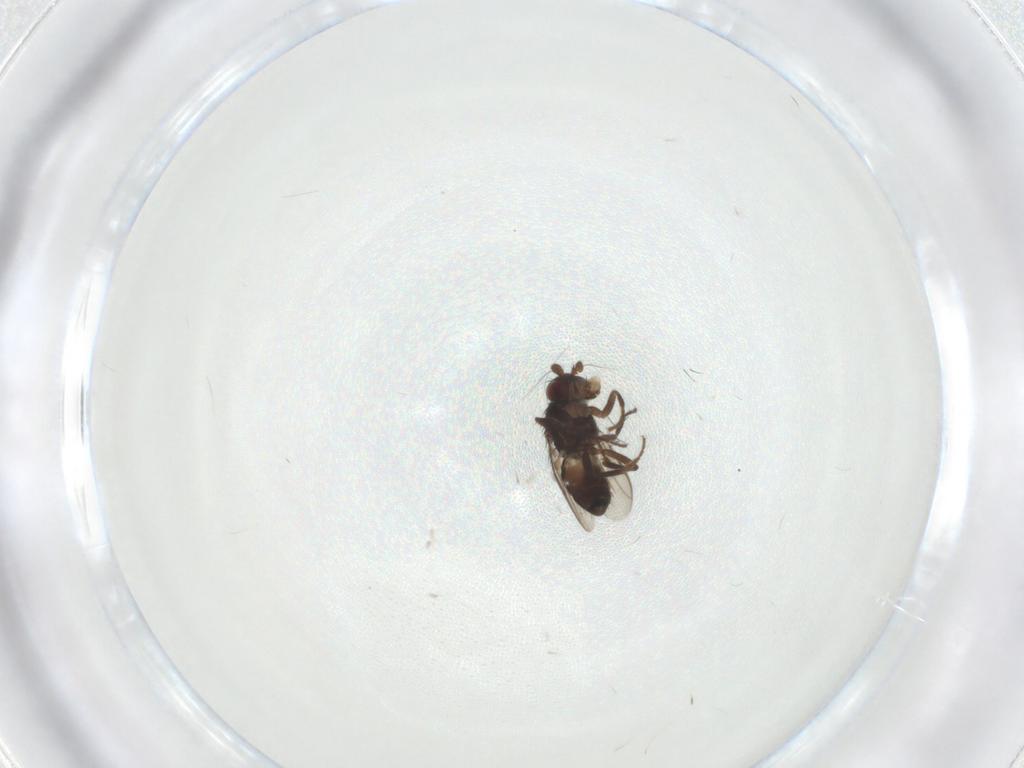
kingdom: Animalia
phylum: Arthropoda
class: Insecta
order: Diptera
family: Sphaeroceridae
